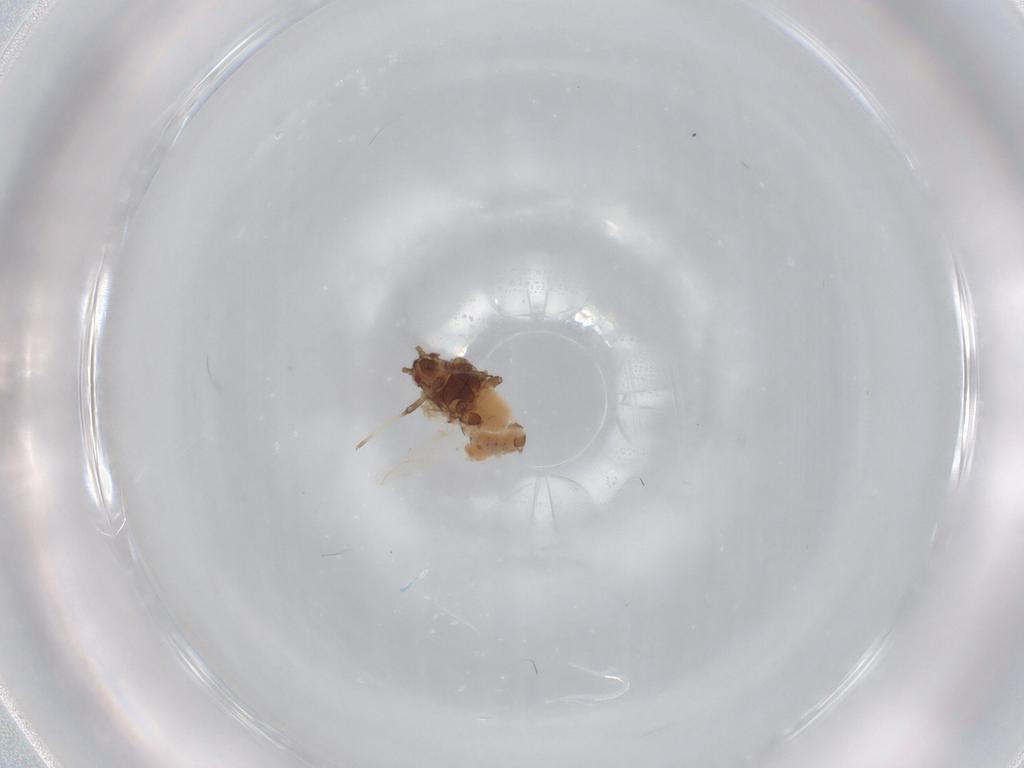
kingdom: Animalia
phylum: Arthropoda
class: Insecta
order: Hemiptera
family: Aphididae
